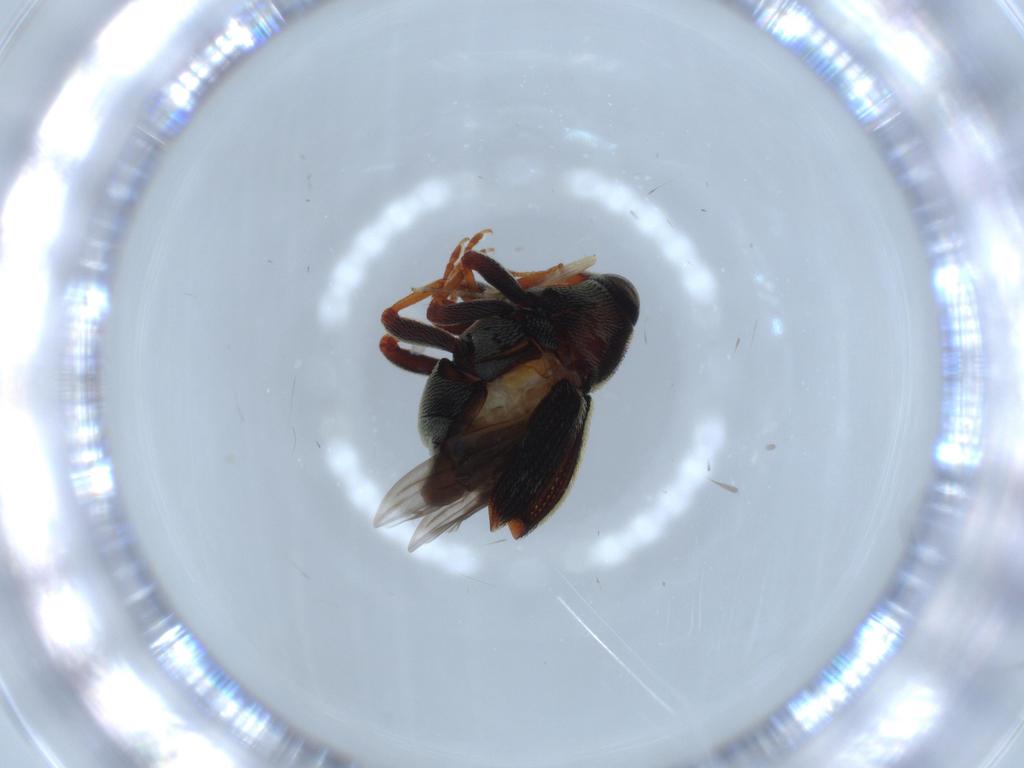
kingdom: Animalia
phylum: Arthropoda
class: Insecta
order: Coleoptera
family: Curculionidae
